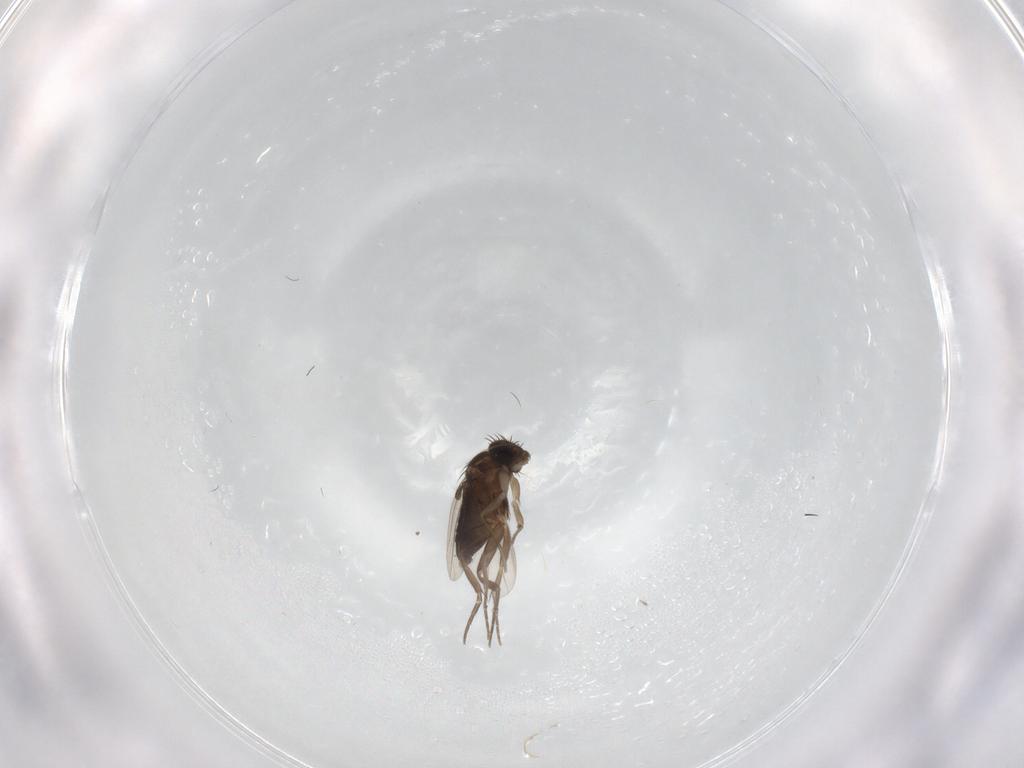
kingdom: Animalia
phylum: Arthropoda
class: Insecta
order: Diptera
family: Phoridae
